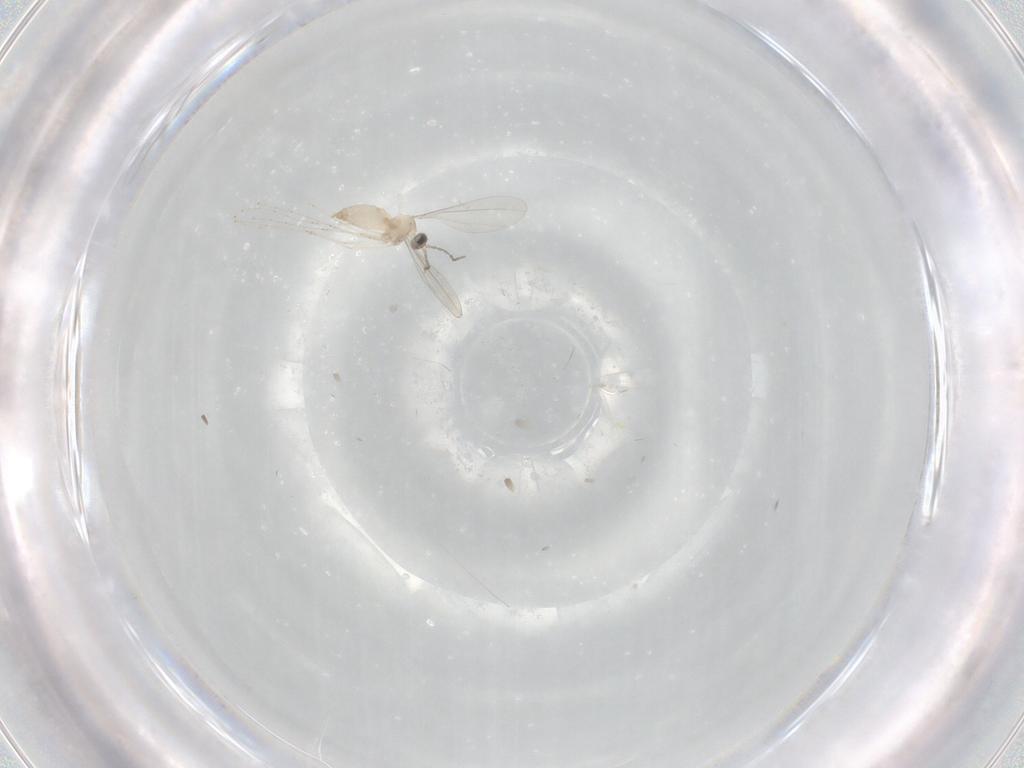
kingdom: Animalia
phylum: Arthropoda
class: Insecta
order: Diptera
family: Cecidomyiidae
